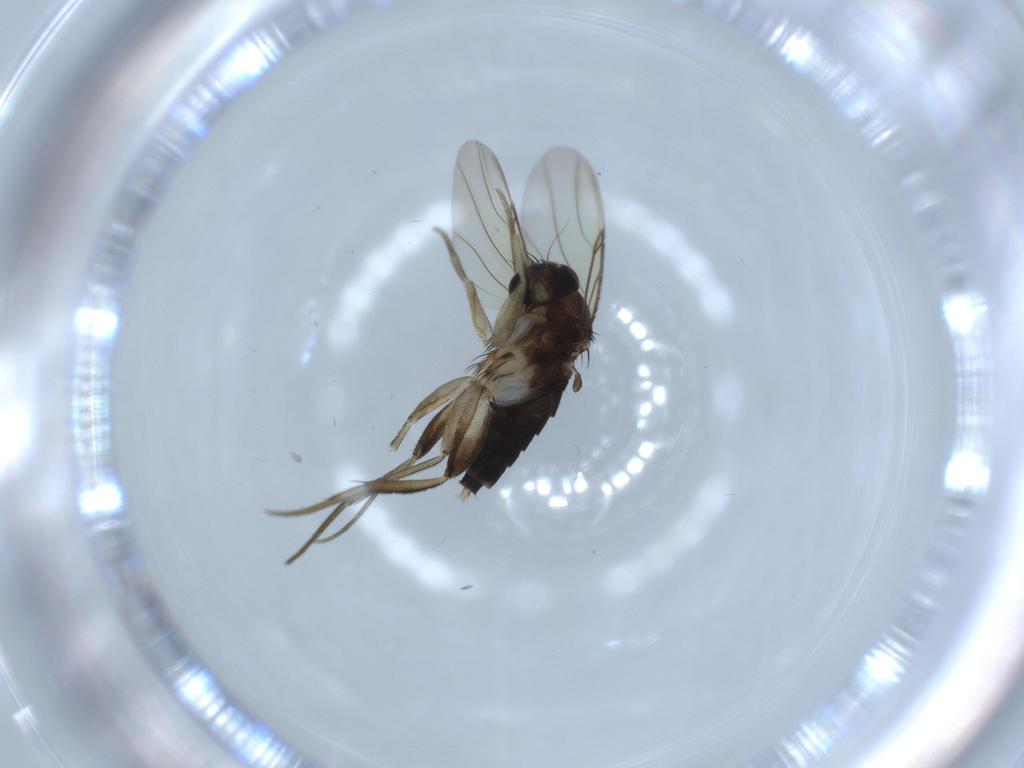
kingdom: Animalia
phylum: Arthropoda
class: Insecta
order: Diptera
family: Phoridae
